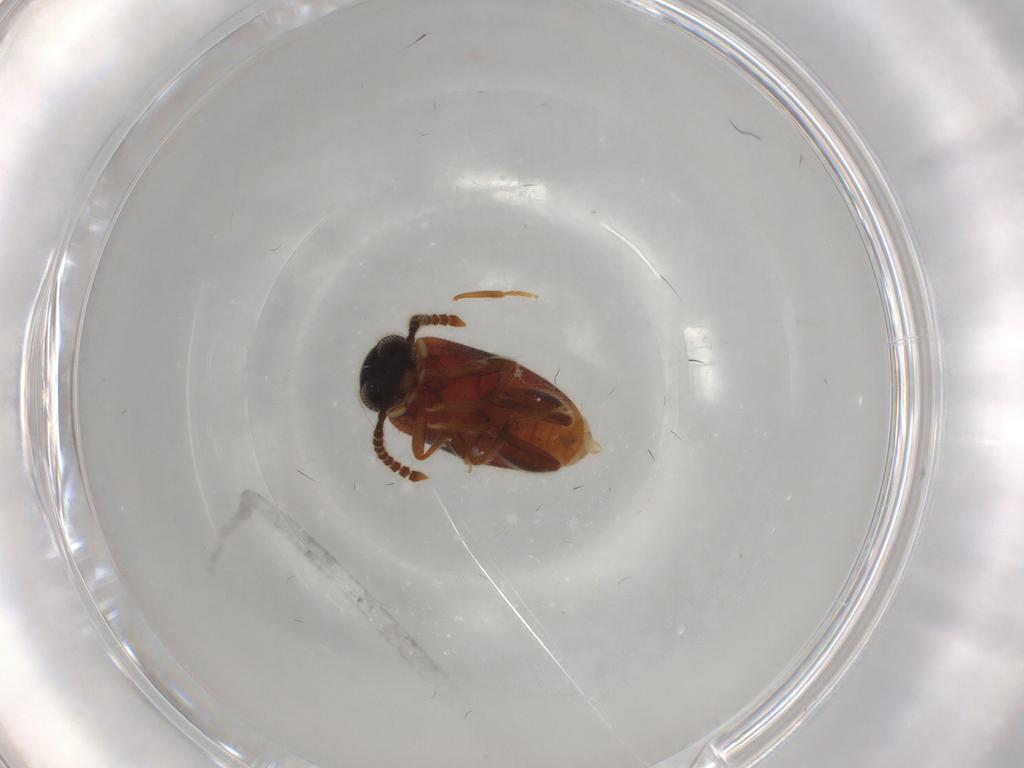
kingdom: Animalia
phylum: Arthropoda
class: Insecta
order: Coleoptera
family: Aderidae
